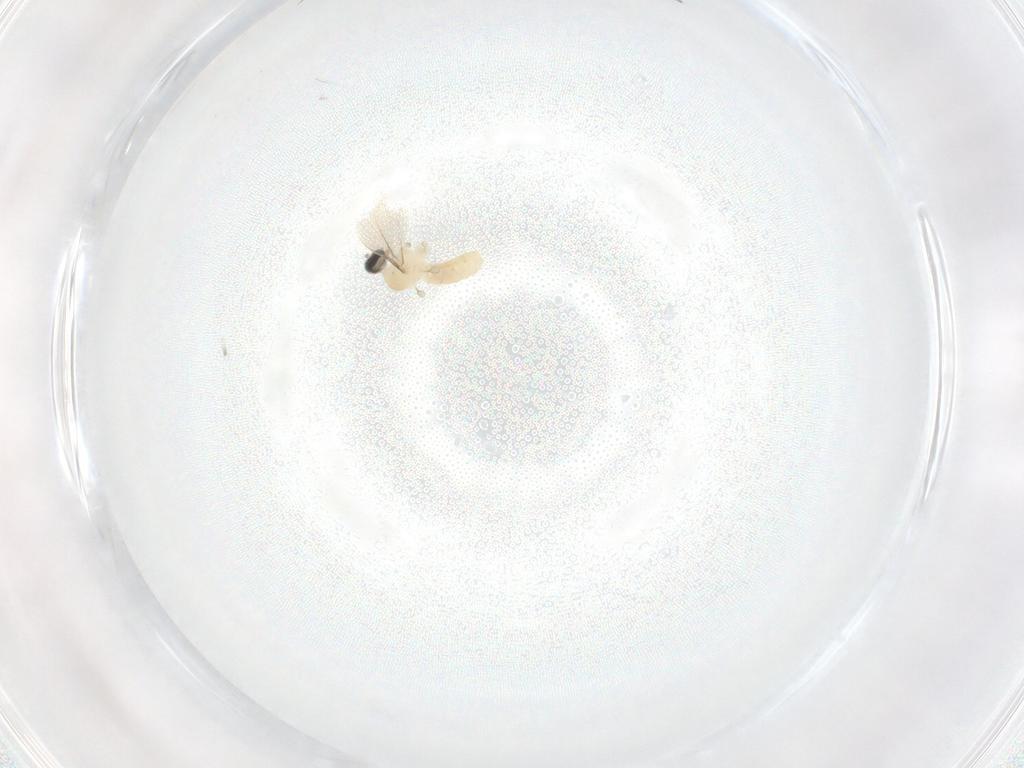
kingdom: Animalia
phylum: Arthropoda
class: Insecta
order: Diptera
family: Cecidomyiidae
